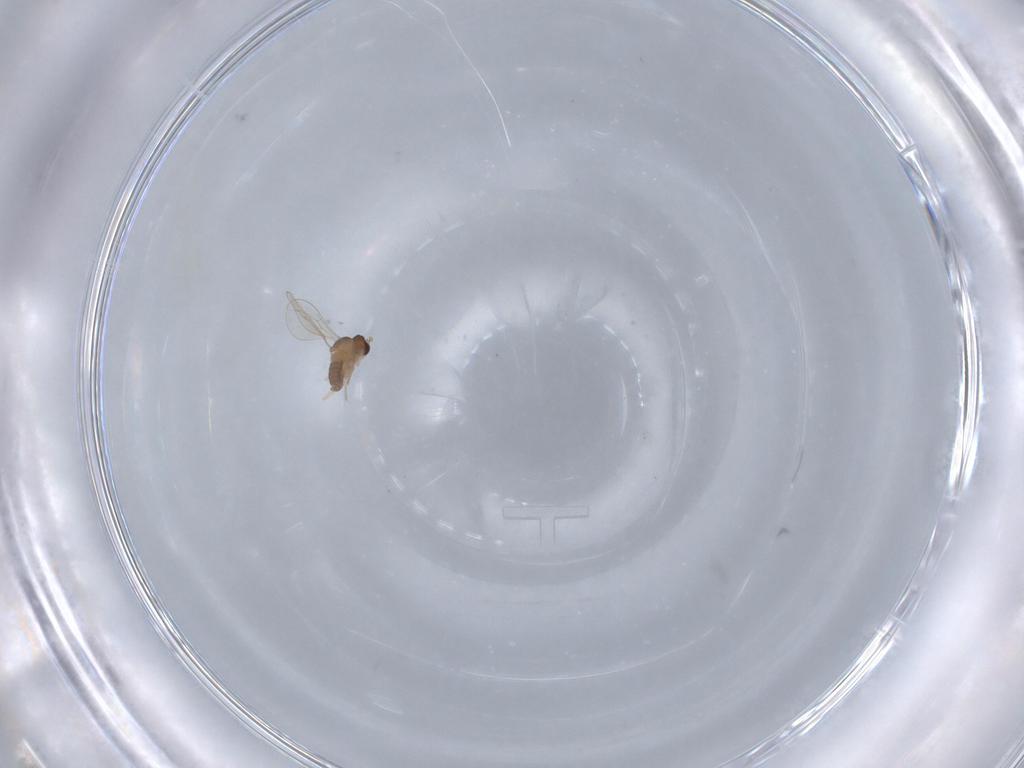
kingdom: Animalia
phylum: Arthropoda
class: Insecta
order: Diptera
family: Cecidomyiidae
